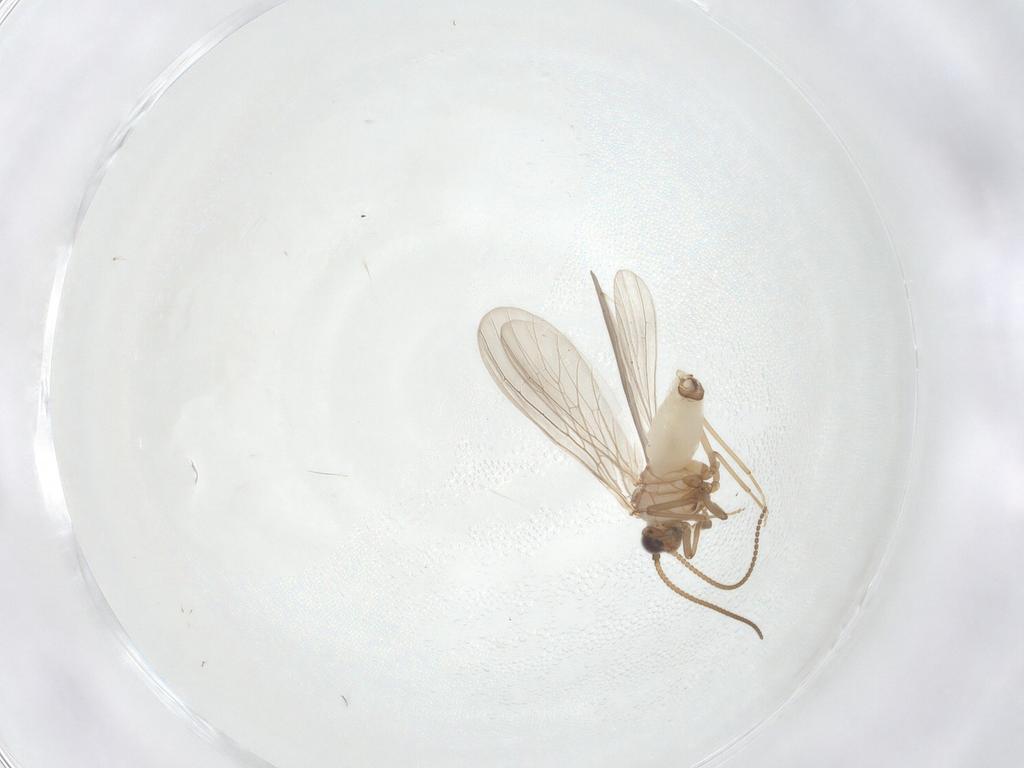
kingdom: Animalia
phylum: Arthropoda
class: Insecta
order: Neuroptera
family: Coniopterygidae
